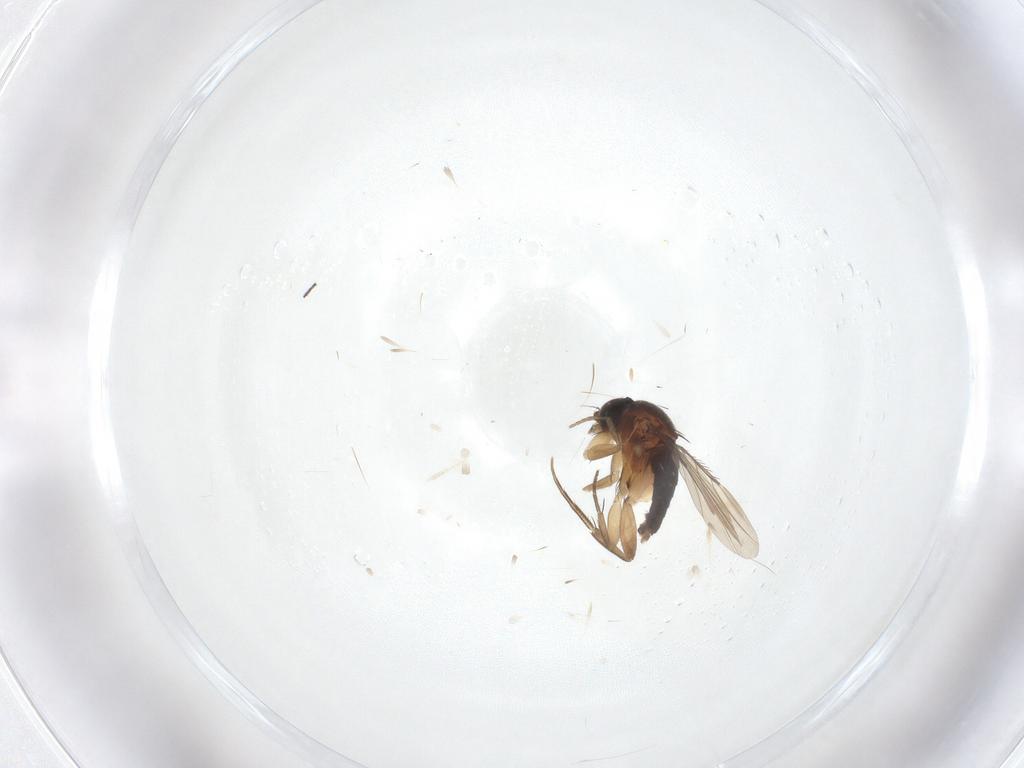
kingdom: Animalia
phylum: Arthropoda
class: Insecta
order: Diptera
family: Phoridae
